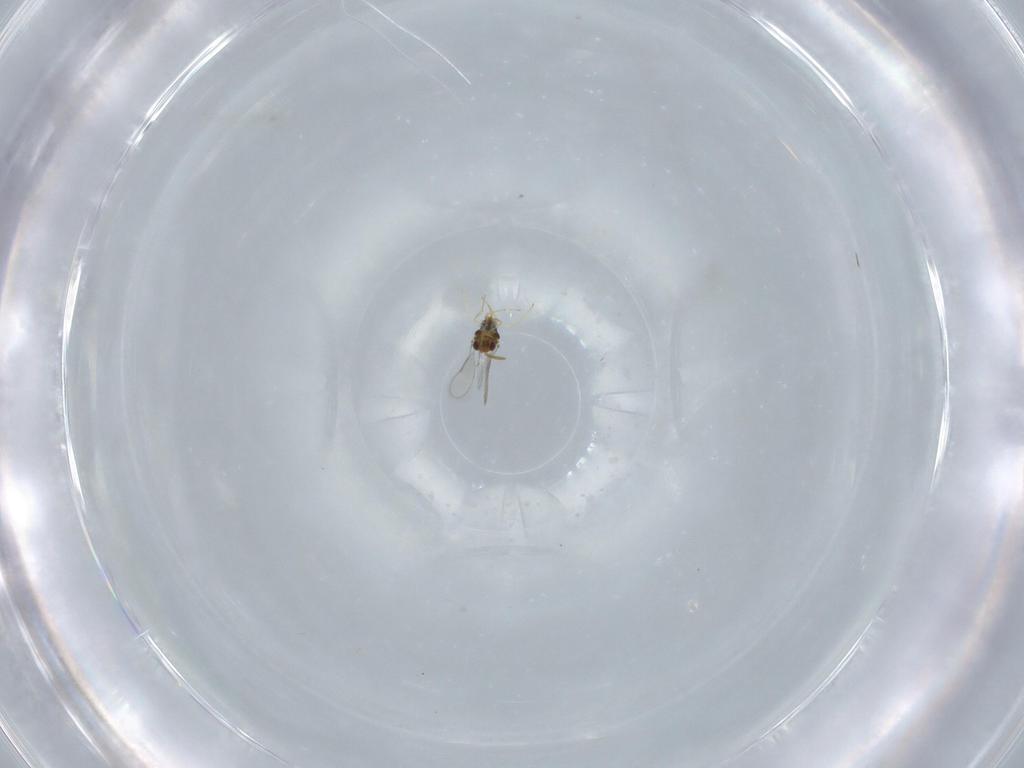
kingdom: Animalia
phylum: Arthropoda
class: Insecta
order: Hymenoptera
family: Aphelinidae
